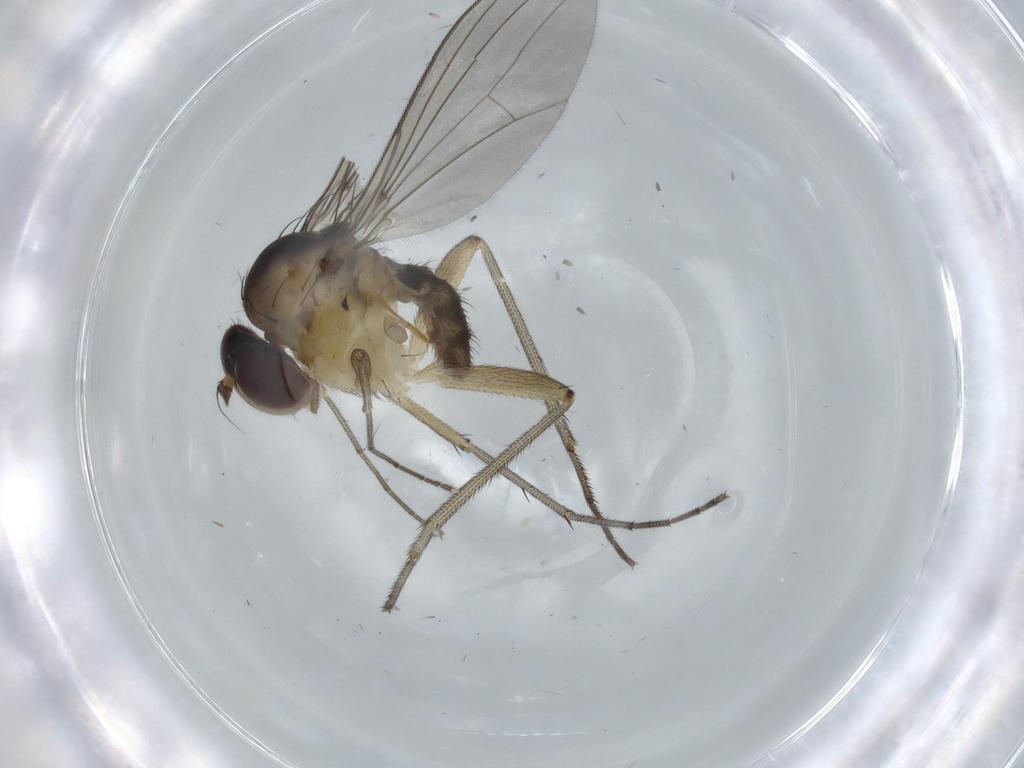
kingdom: Animalia
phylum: Arthropoda
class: Insecta
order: Diptera
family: Dolichopodidae
